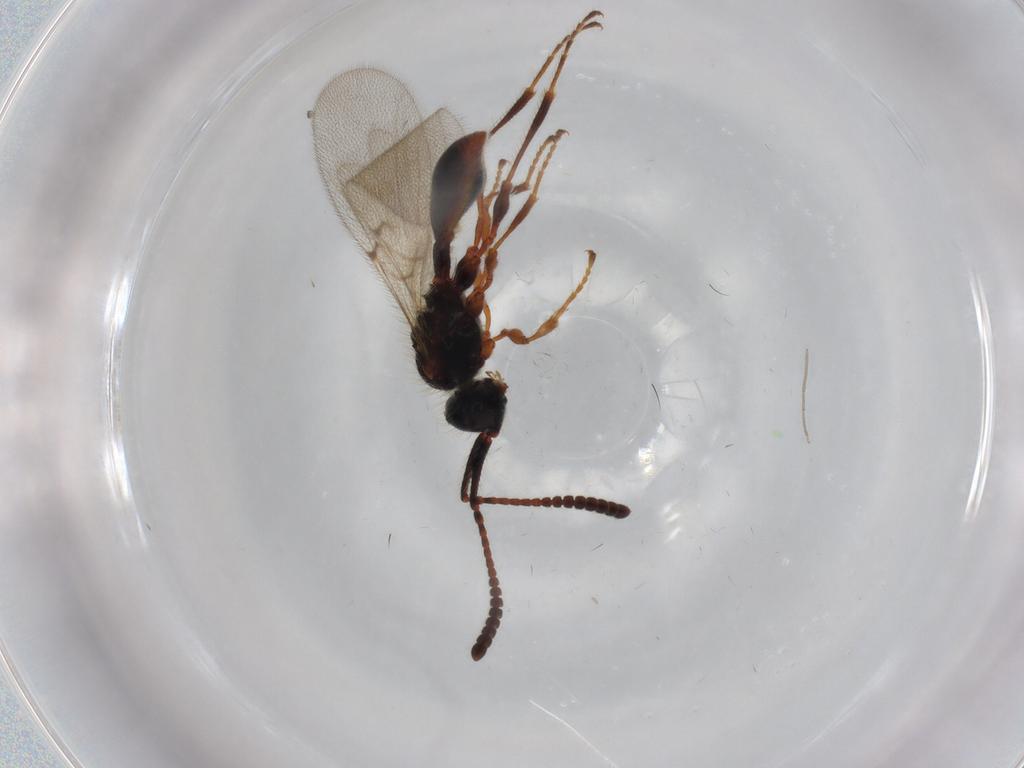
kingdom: Animalia
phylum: Arthropoda
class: Insecta
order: Hymenoptera
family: Diapriidae
